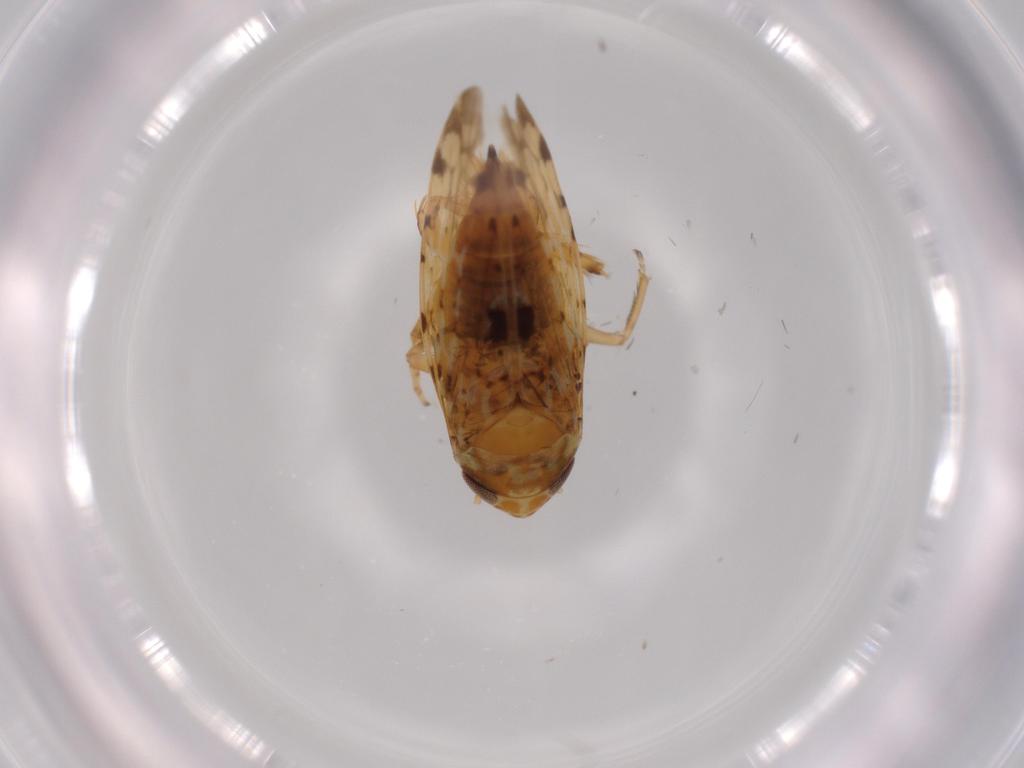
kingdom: Animalia
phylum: Arthropoda
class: Insecta
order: Hemiptera
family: Cicadellidae
